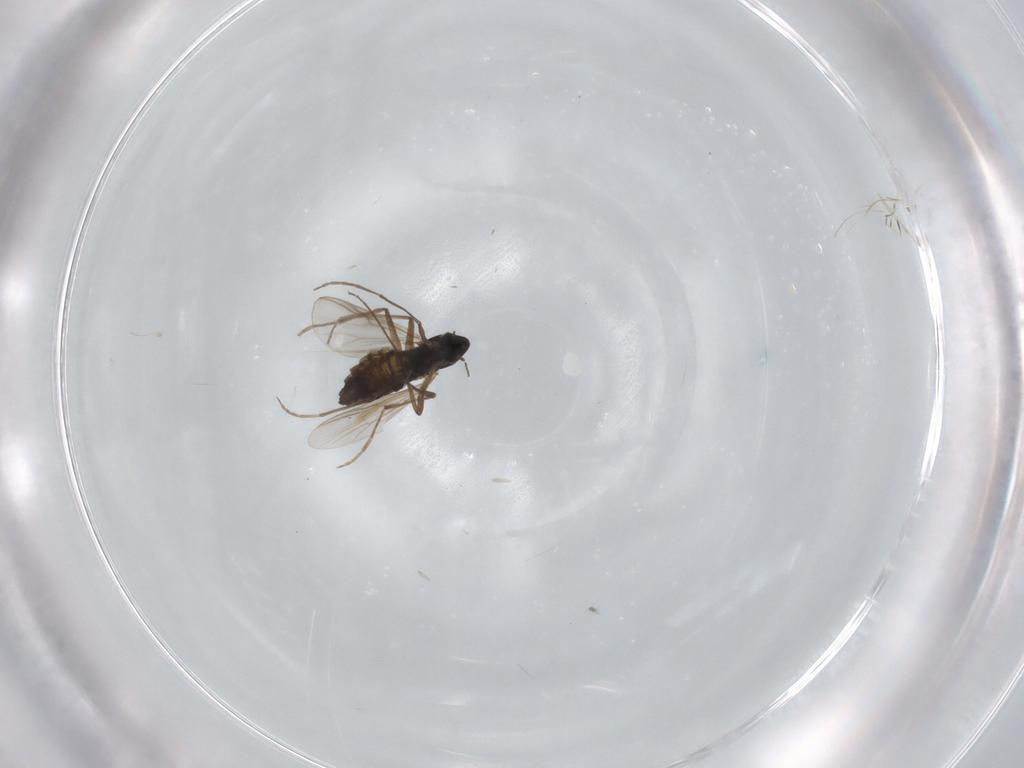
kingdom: Animalia
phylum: Arthropoda
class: Insecta
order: Diptera
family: Chironomidae
